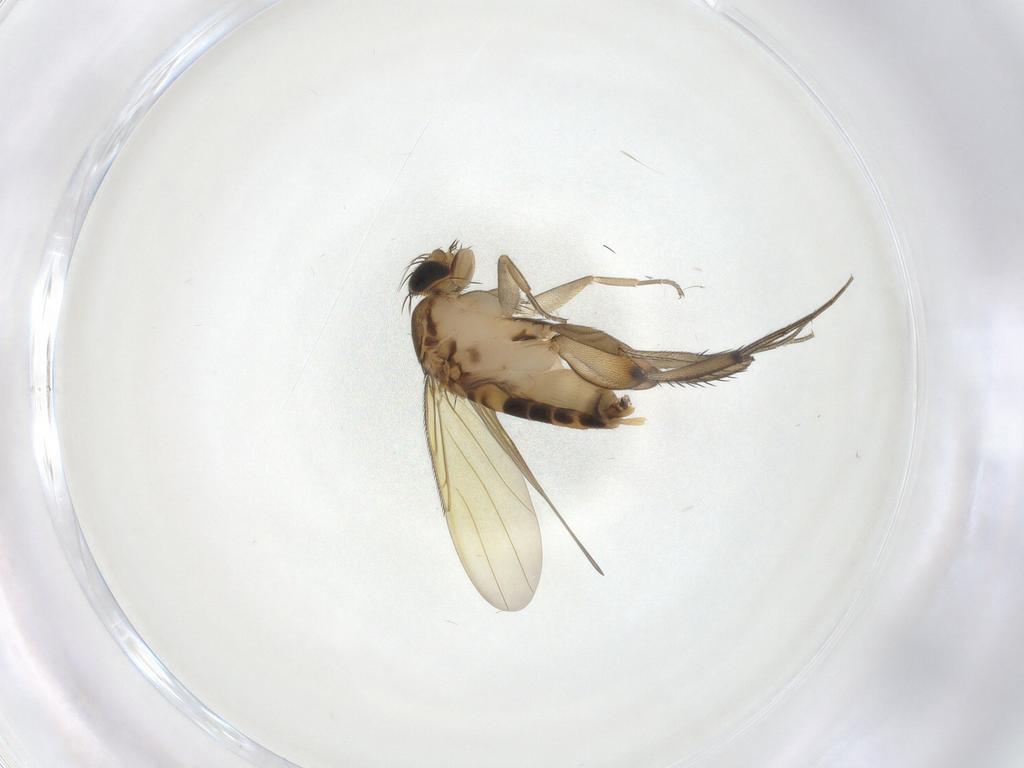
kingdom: Animalia
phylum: Arthropoda
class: Insecta
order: Diptera
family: Phoridae
